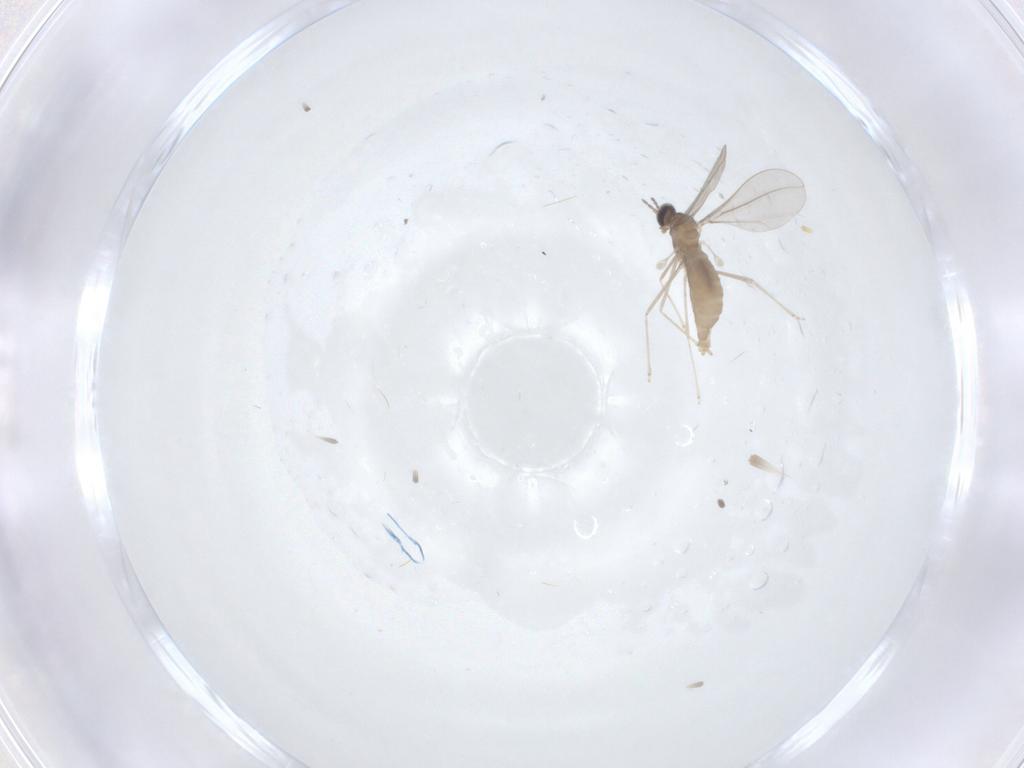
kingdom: Animalia
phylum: Arthropoda
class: Insecta
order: Diptera
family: Cecidomyiidae
